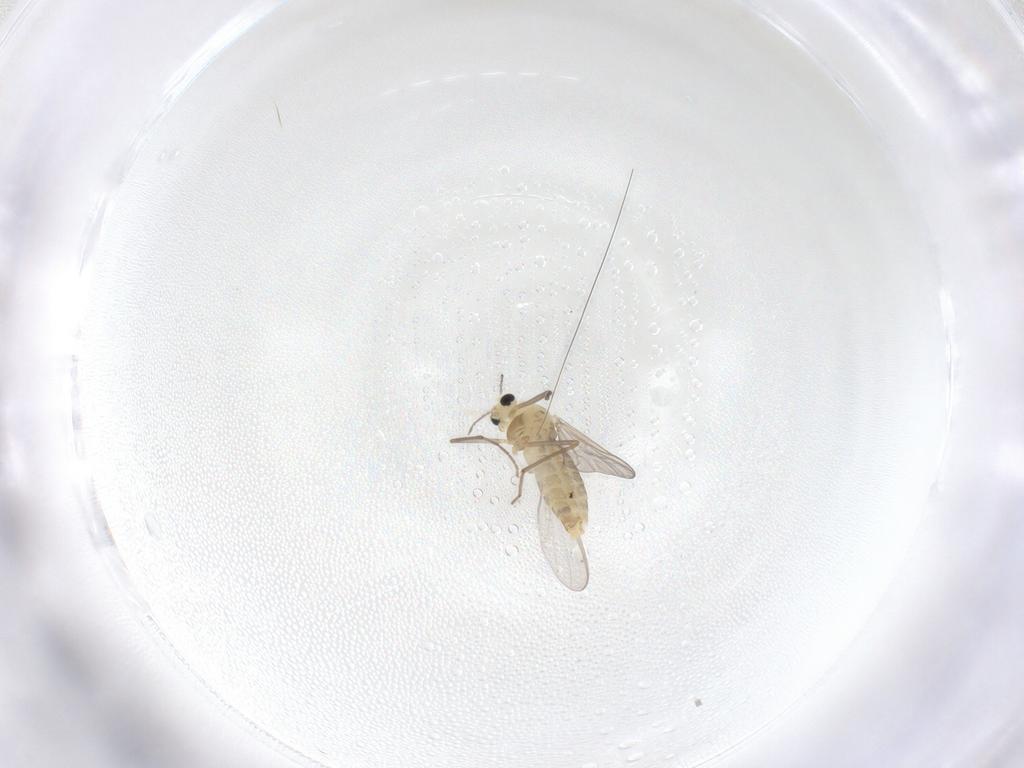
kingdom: Animalia
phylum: Arthropoda
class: Insecta
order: Diptera
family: Chironomidae
